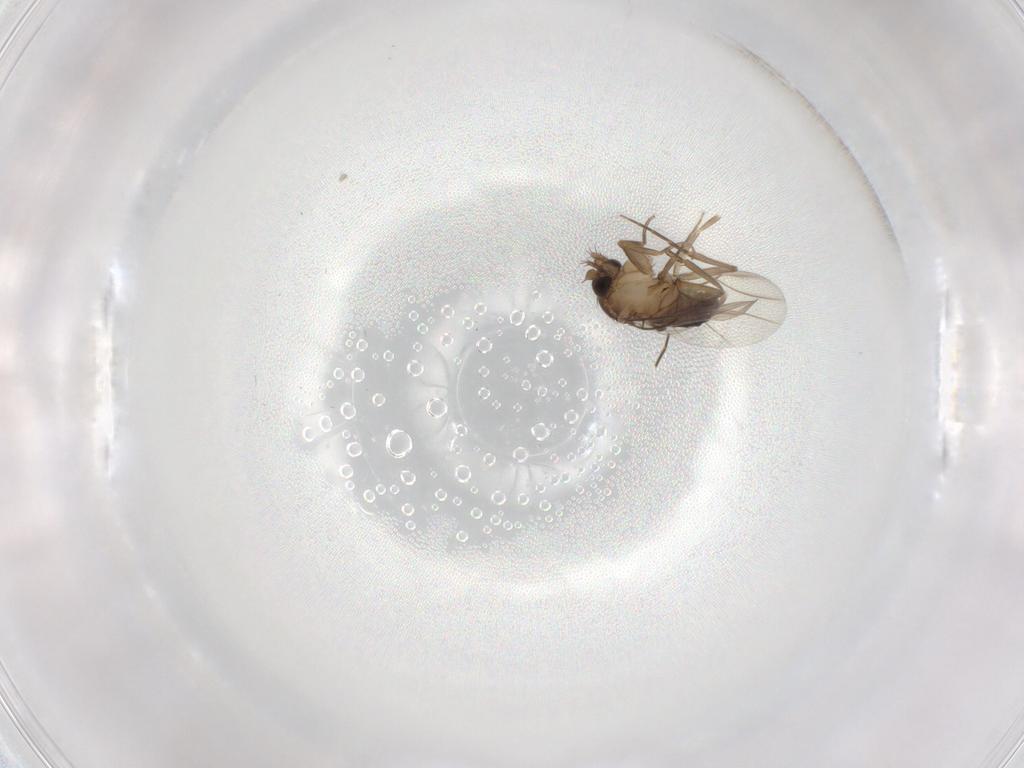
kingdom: Animalia
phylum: Arthropoda
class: Insecta
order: Diptera
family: Phoridae
